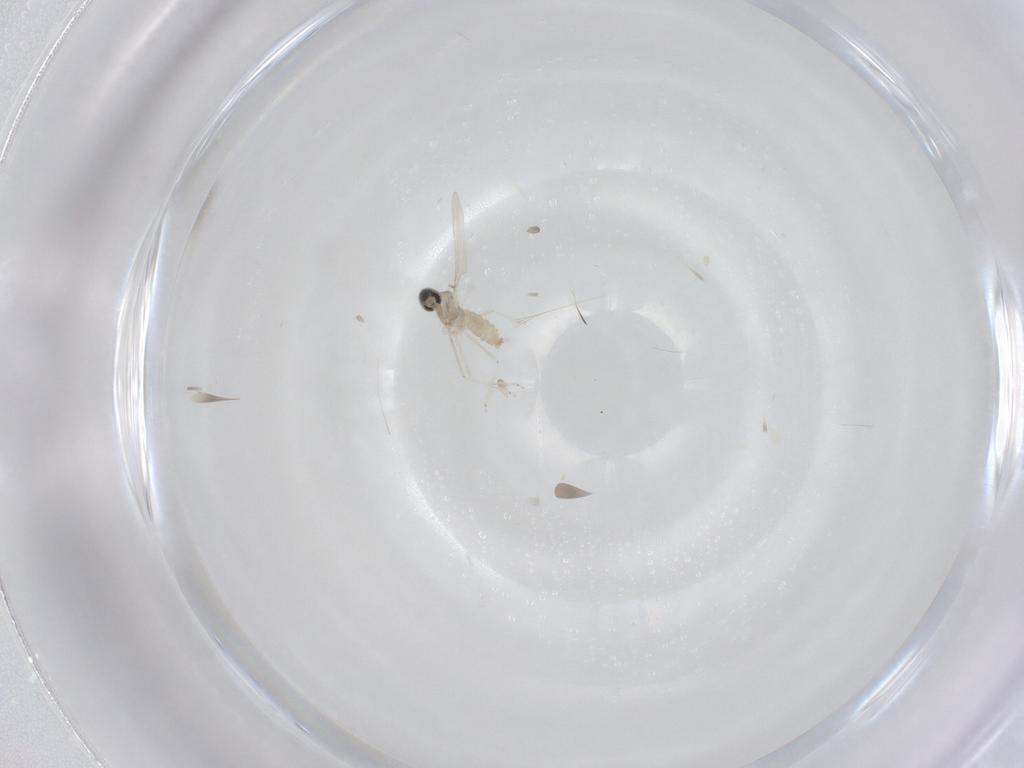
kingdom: Animalia
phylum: Arthropoda
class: Insecta
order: Diptera
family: Cecidomyiidae
